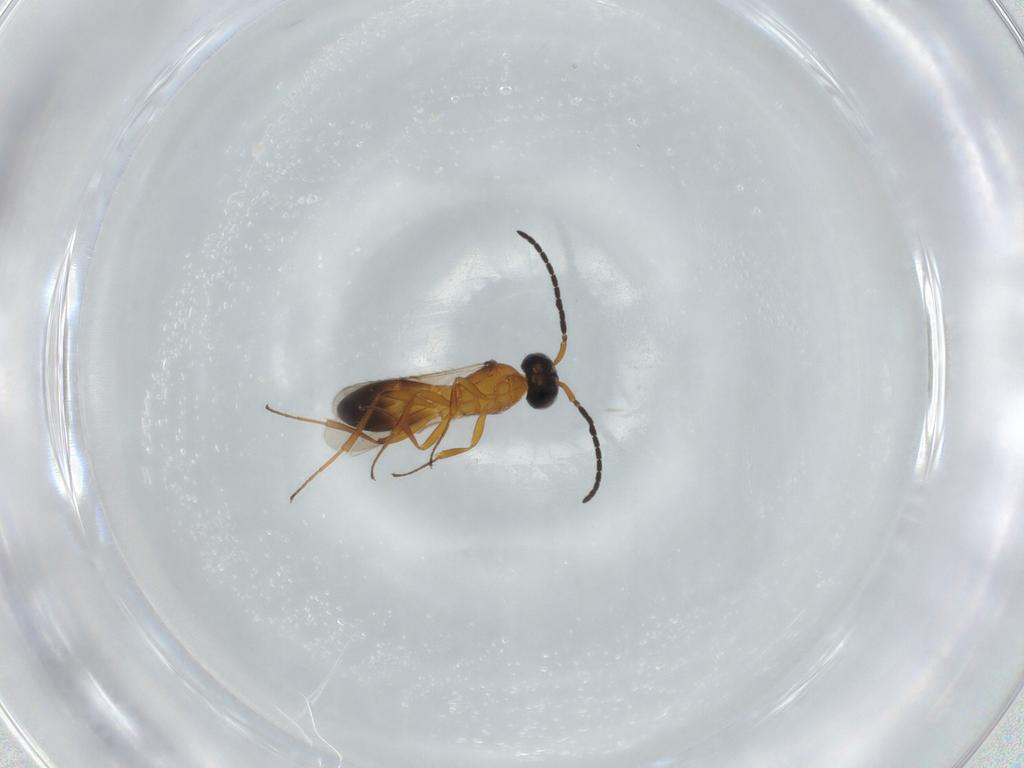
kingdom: Animalia
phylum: Arthropoda
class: Insecta
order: Hymenoptera
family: Scelionidae
